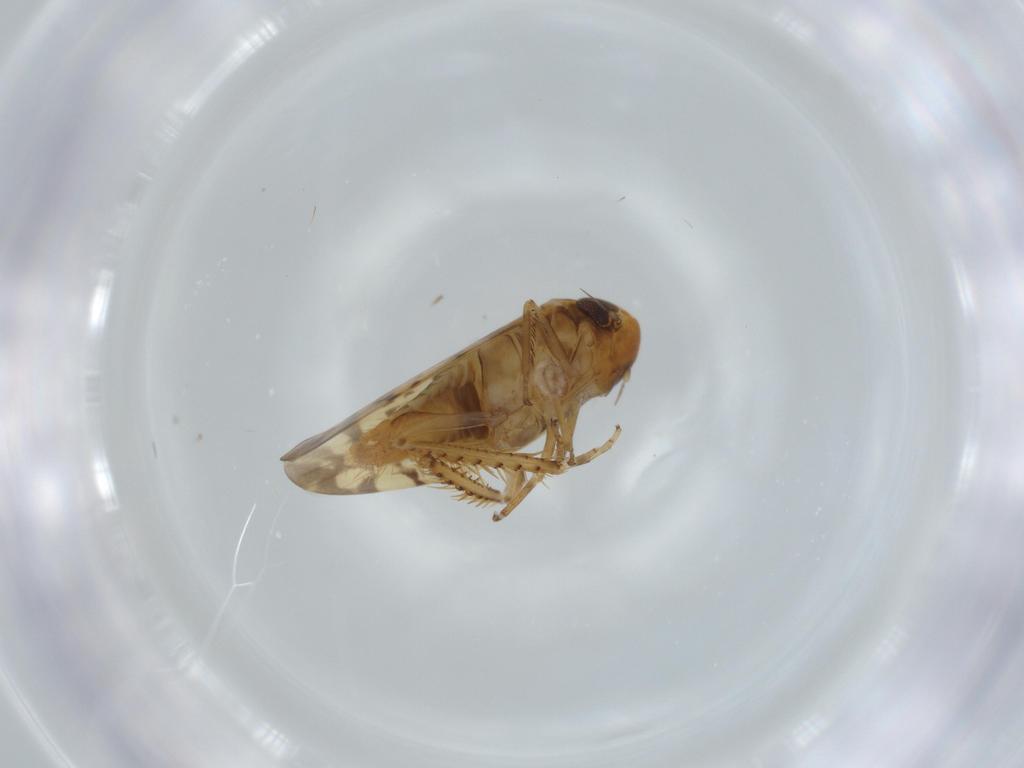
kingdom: Animalia
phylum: Arthropoda
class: Insecta
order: Hemiptera
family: Cicadellidae
